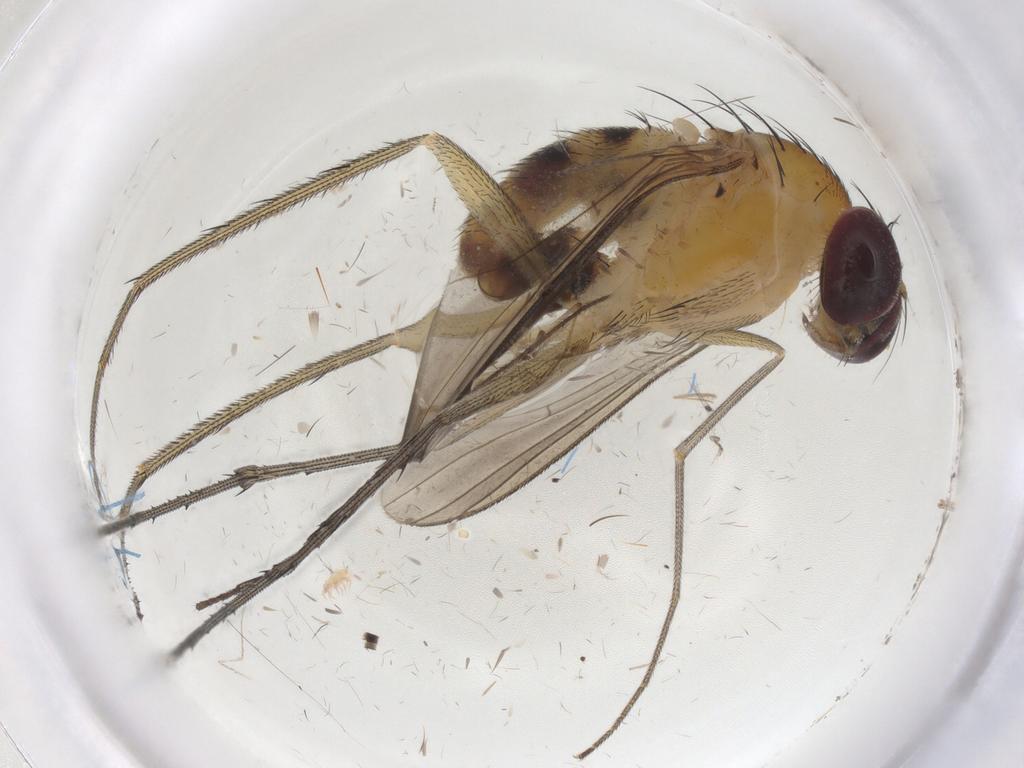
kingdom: Animalia
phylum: Arthropoda
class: Insecta
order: Diptera
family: Dolichopodidae
